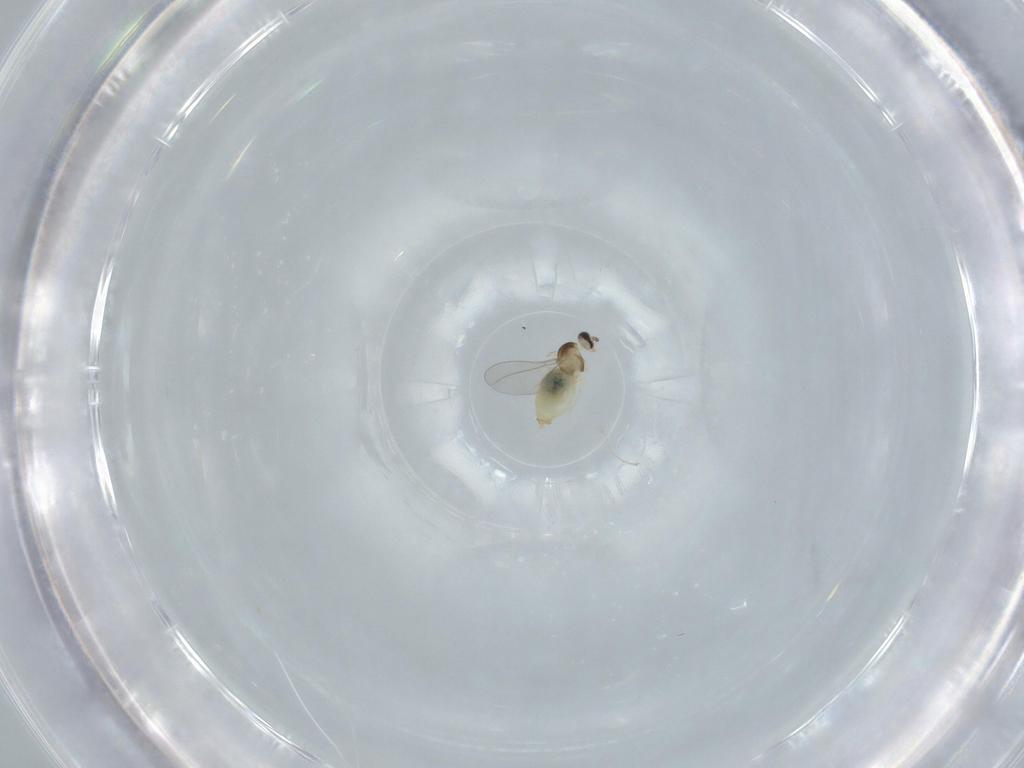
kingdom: Animalia
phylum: Arthropoda
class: Insecta
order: Diptera
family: Cecidomyiidae
